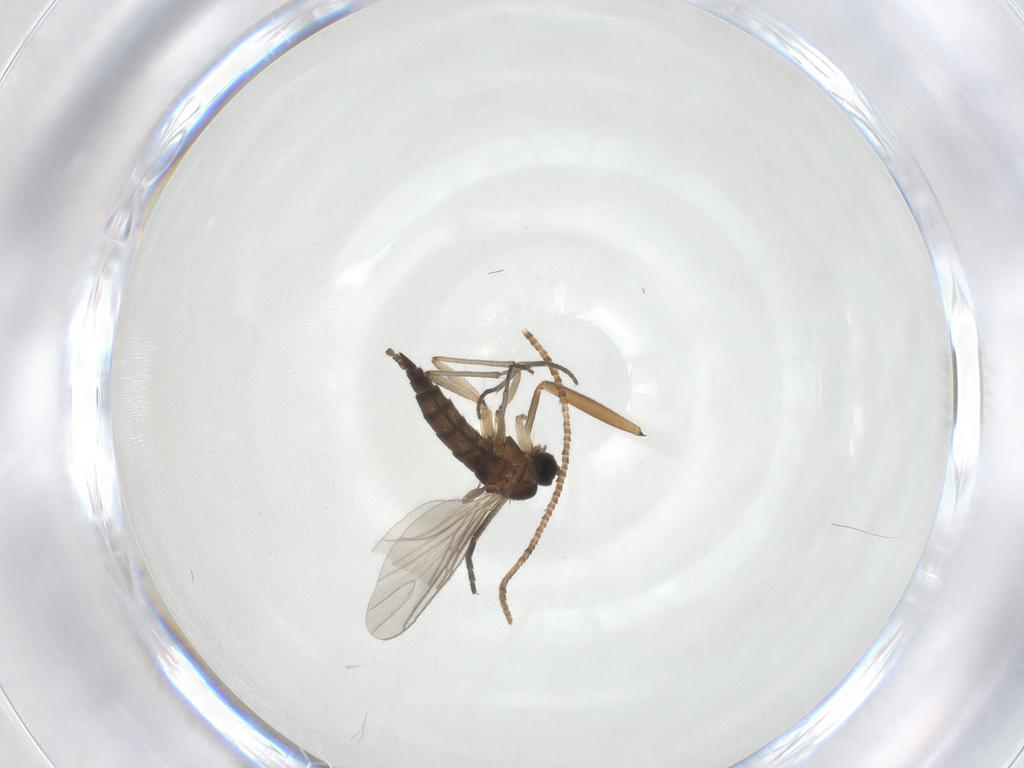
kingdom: Animalia
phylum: Arthropoda
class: Insecta
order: Diptera
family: Sciaridae
